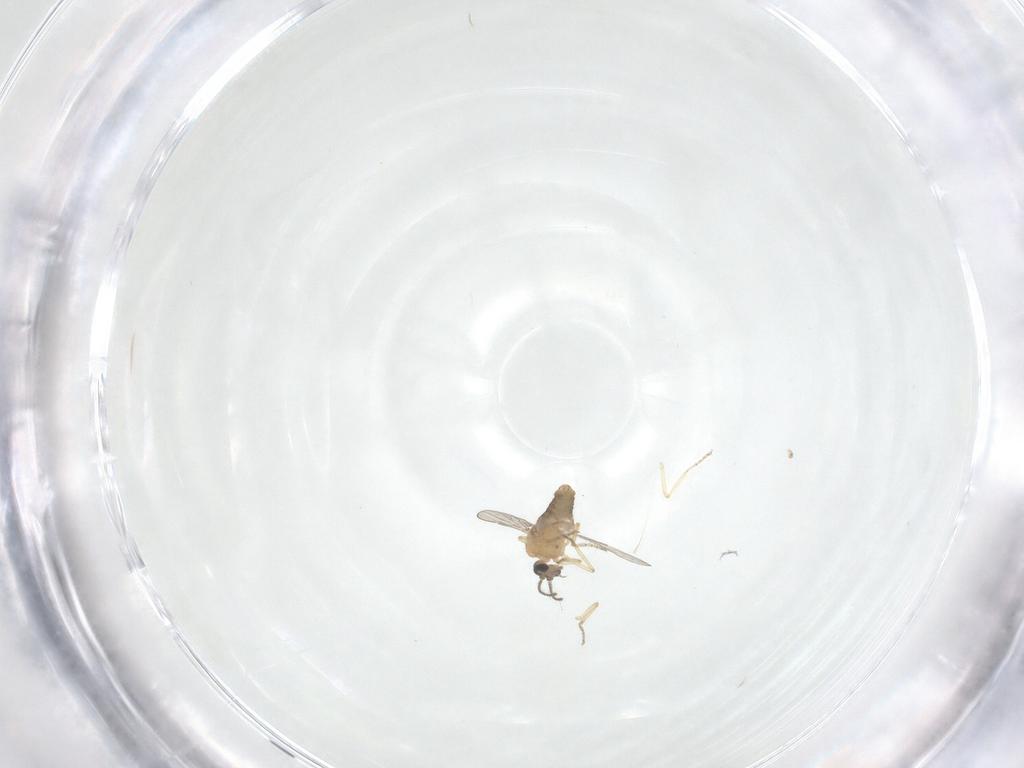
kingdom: Animalia
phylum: Arthropoda
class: Insecta
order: Diptera
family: Ceratopogonidae
